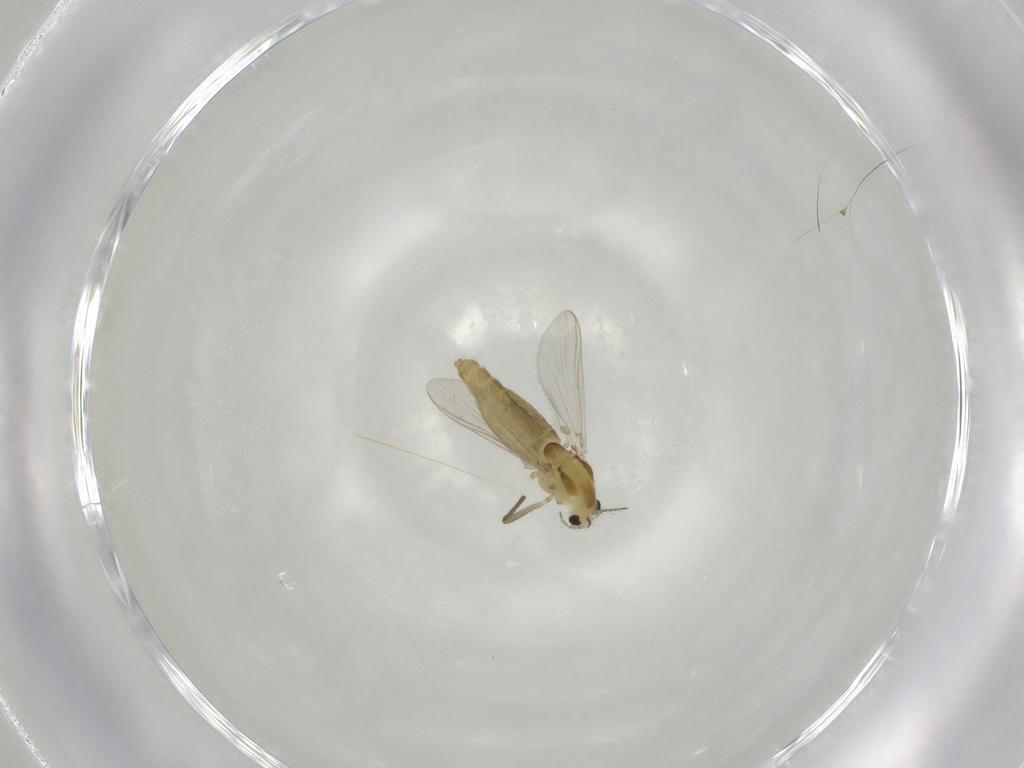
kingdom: Animalia
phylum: Arthropoda
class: Insecta
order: Diptera
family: Chironomidae
